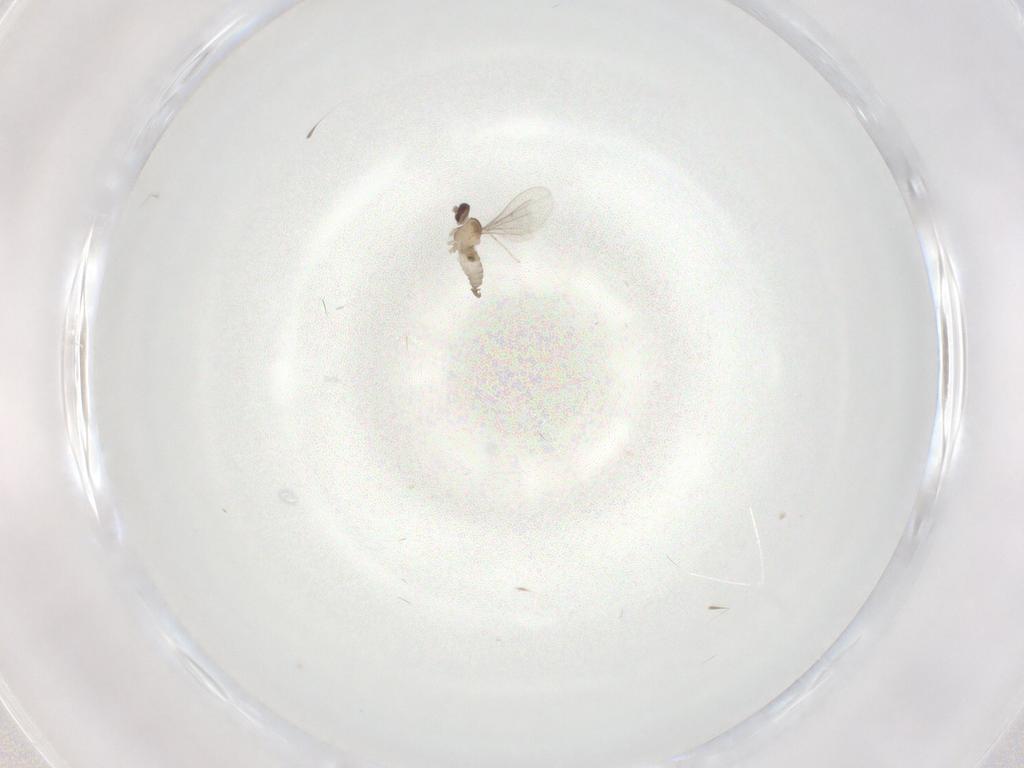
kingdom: Animalia
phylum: Arthropoda
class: Insecta
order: Diptera
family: Cecidomyiidae
